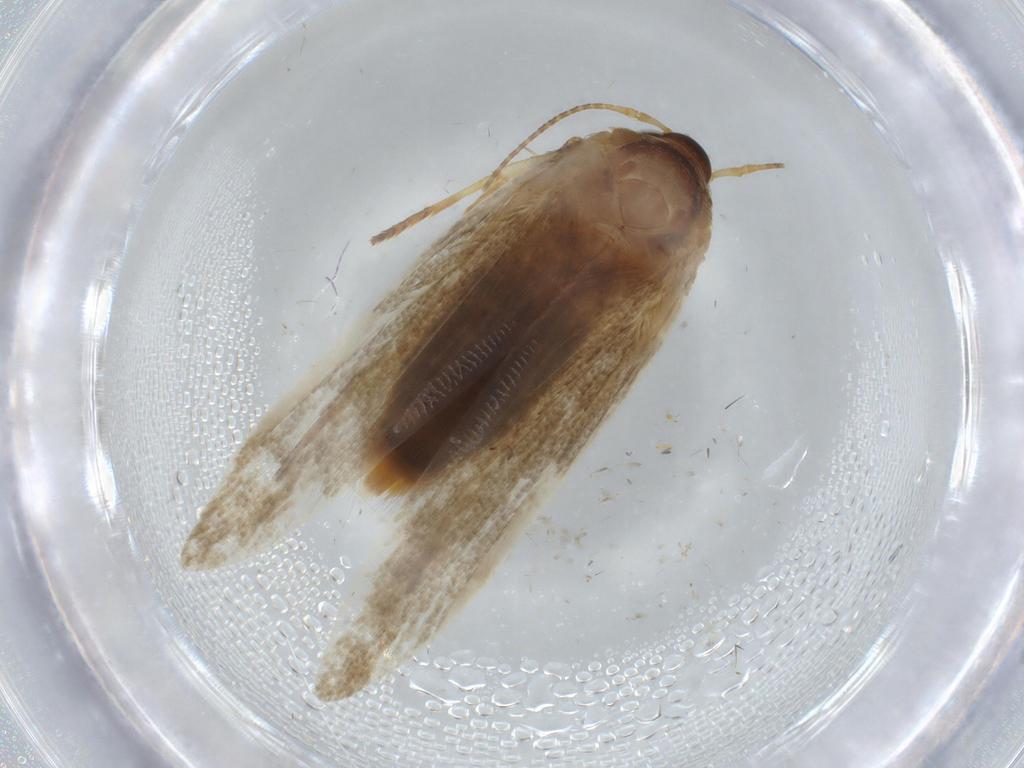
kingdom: Animalia
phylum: Arthropoda
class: Insecta
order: Lepidoptera
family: Coleophoridae
